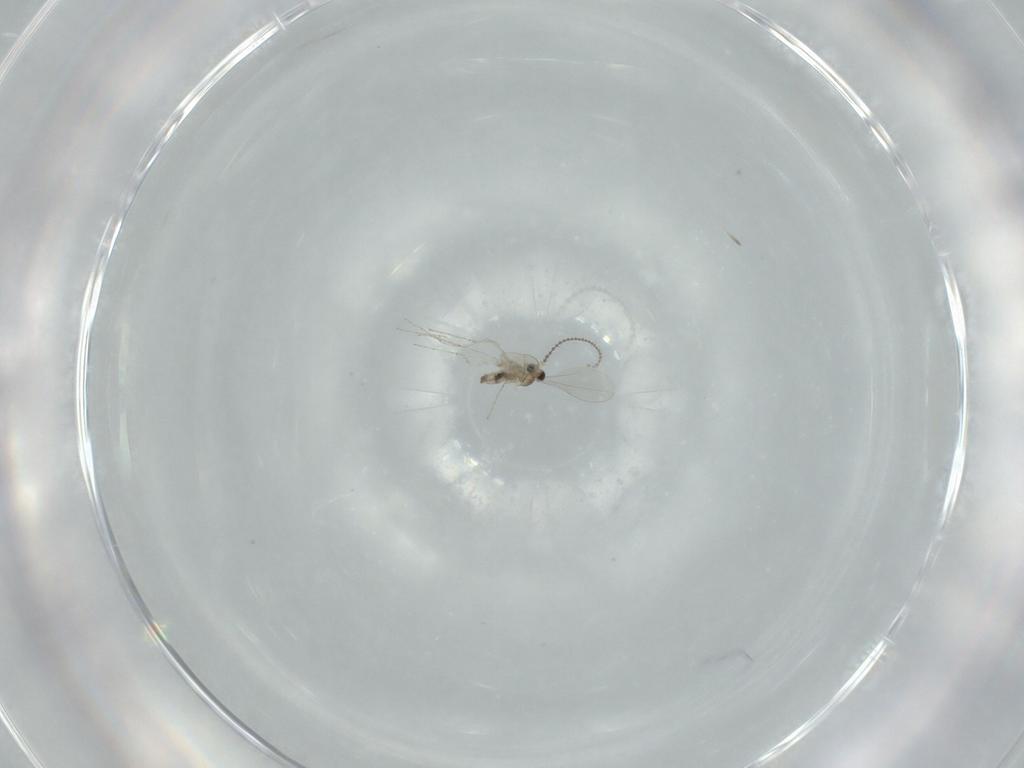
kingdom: Animalia
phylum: Arthropoda
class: Insecta
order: Diptera
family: Cecidomyiidae
